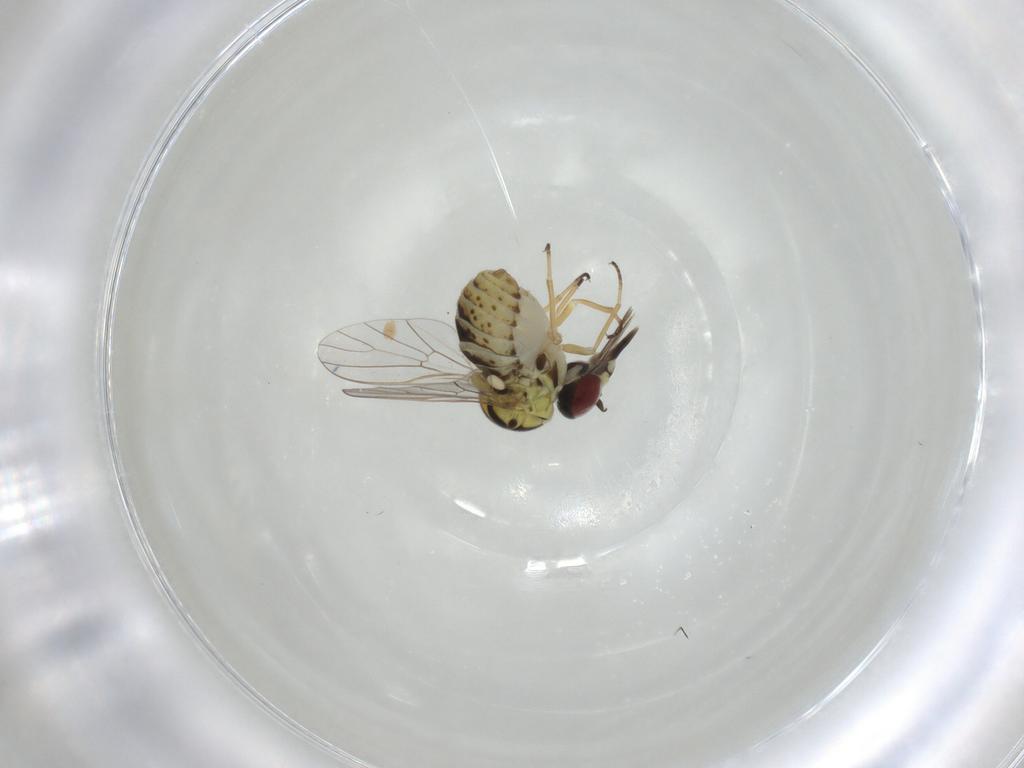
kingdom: Animalia
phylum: Arthropoda
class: Insecta
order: Diptera
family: Bombyliidae
